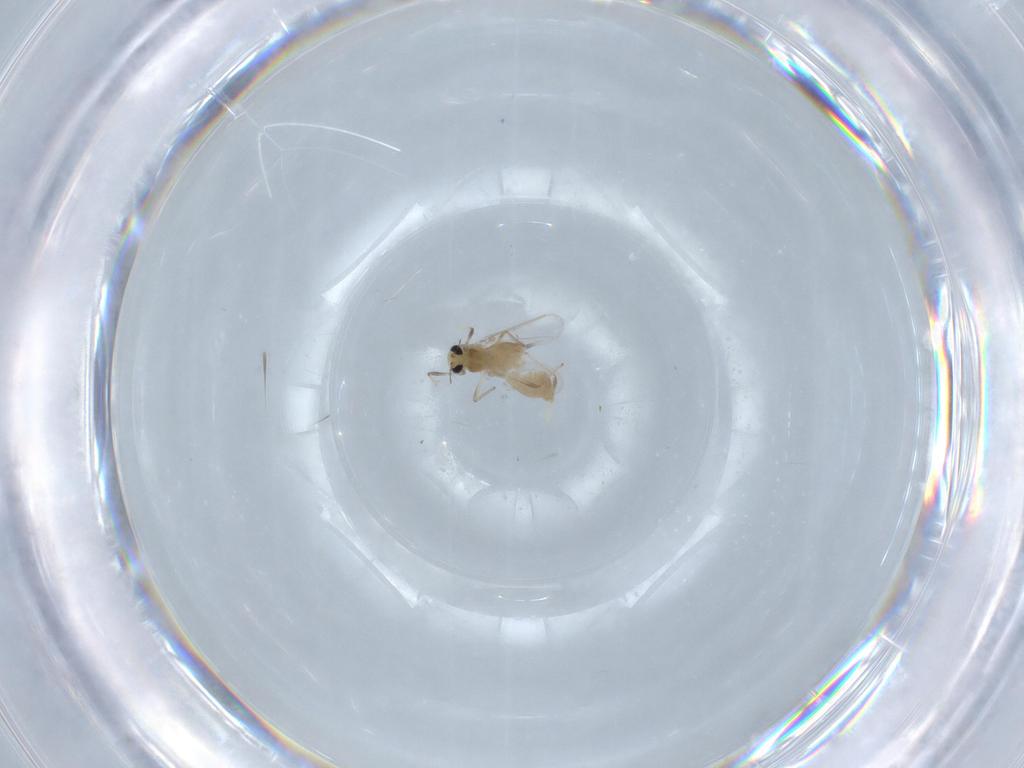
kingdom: Animalia
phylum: Arthropoda
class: Insecta
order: Diptera
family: Chironomidae
